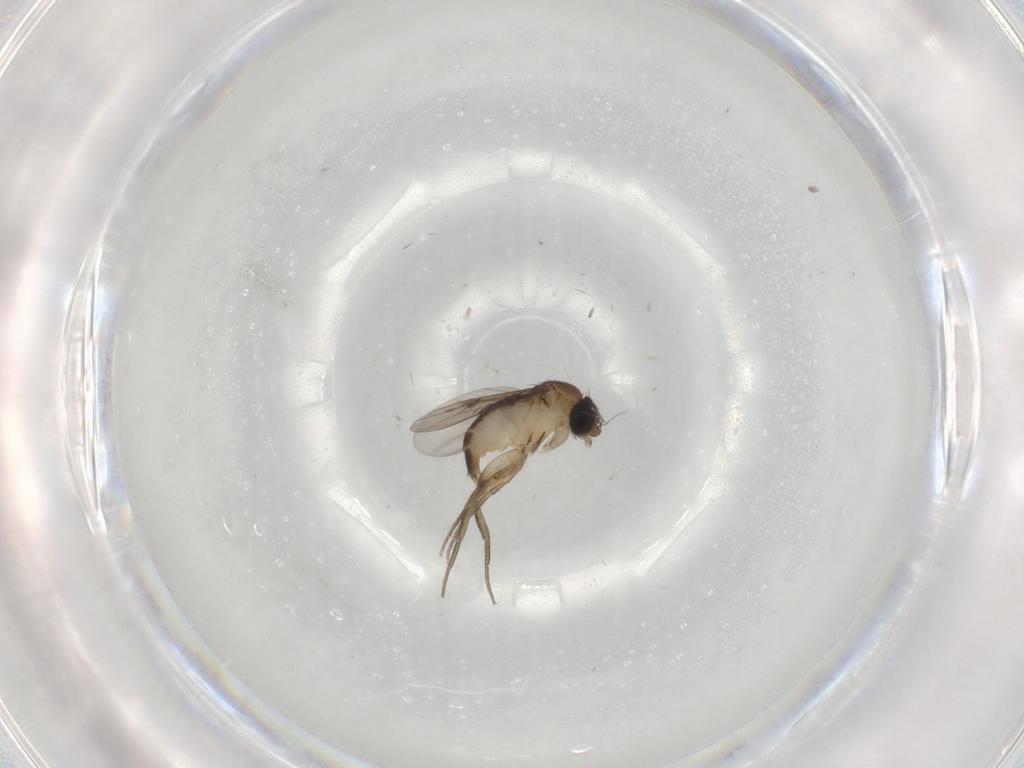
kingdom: Animalia
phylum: Arthropoda
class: Insecta
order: Diptera
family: Phoridae
